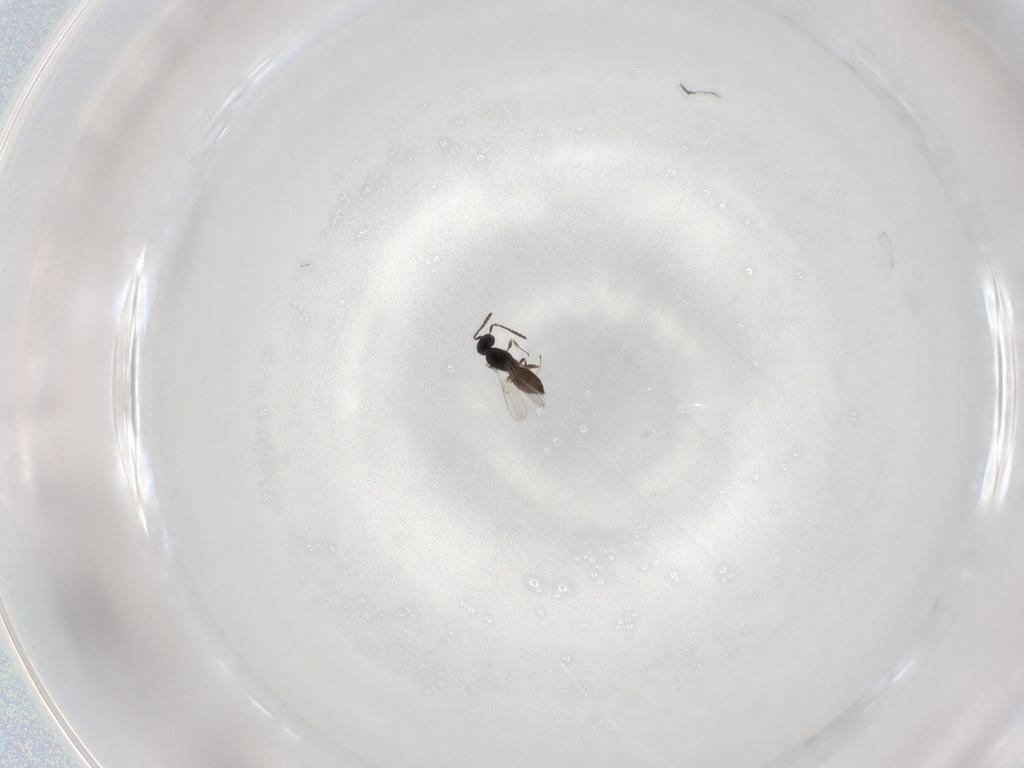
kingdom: Animalia
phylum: Arthropoda
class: Insecta
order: Hymenoptera
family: Scelionidae
